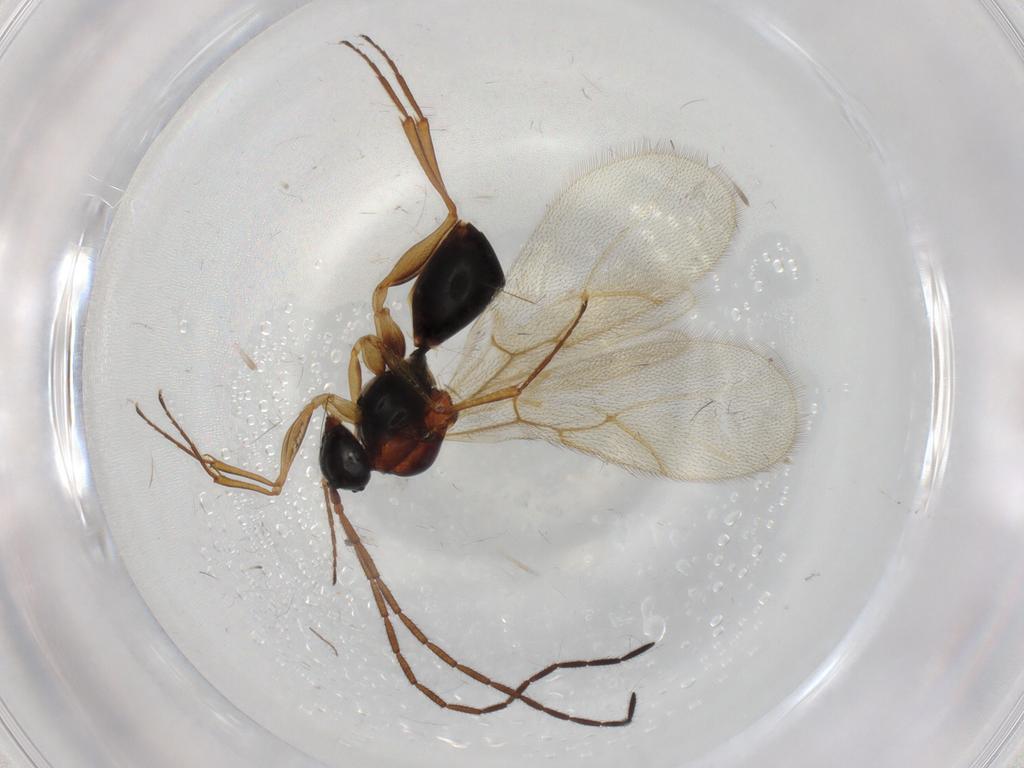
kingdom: Animalia
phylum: Arthropoda
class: Insecta
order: Hymenoptera
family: Figitidae
